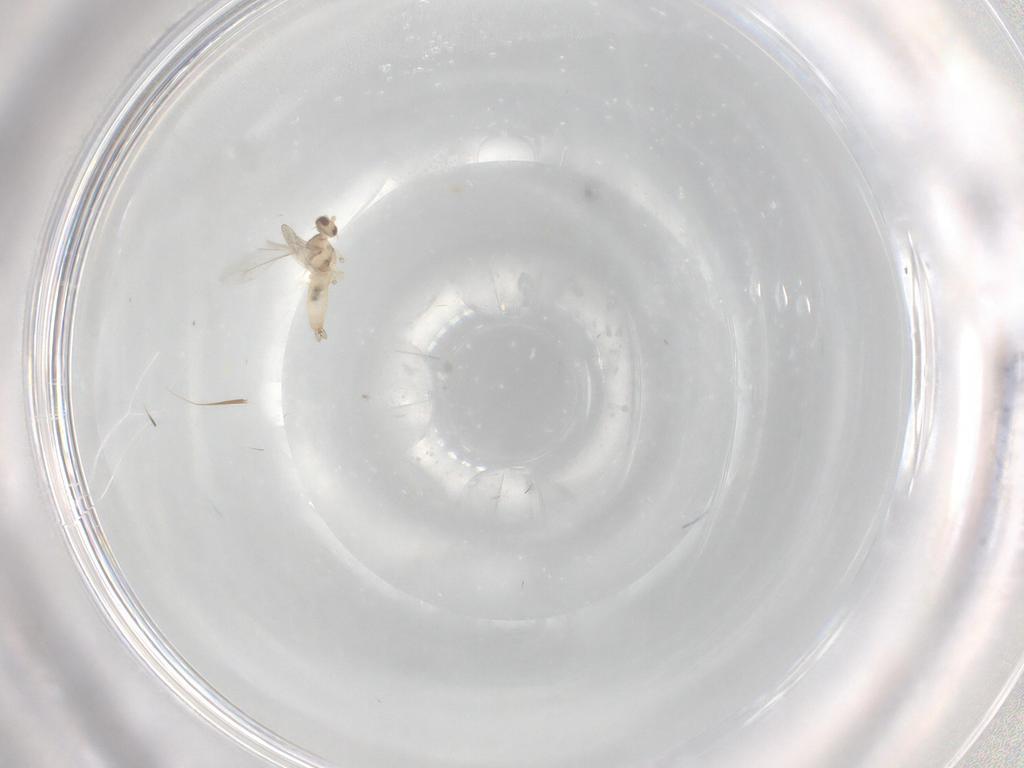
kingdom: Animalia
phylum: Arthropoda
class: Insecta
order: Diptera
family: Cecidomyiidae
